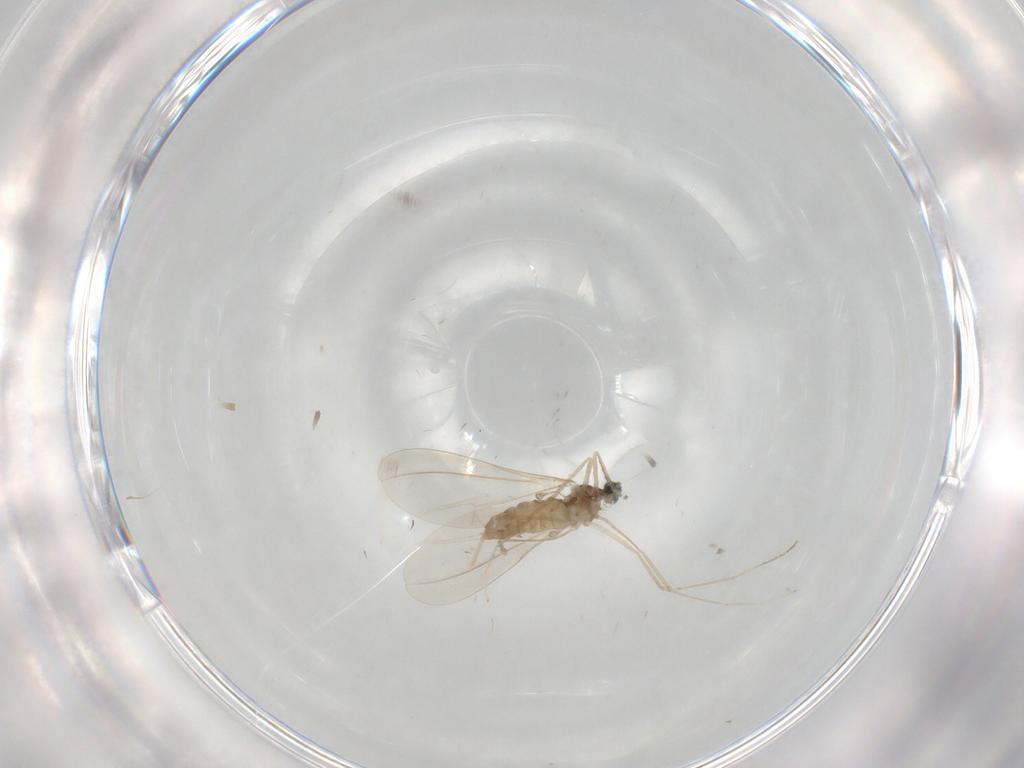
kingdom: Animalia
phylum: Arthropoda
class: Insecta
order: Diptera
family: Cecidomyiidae
